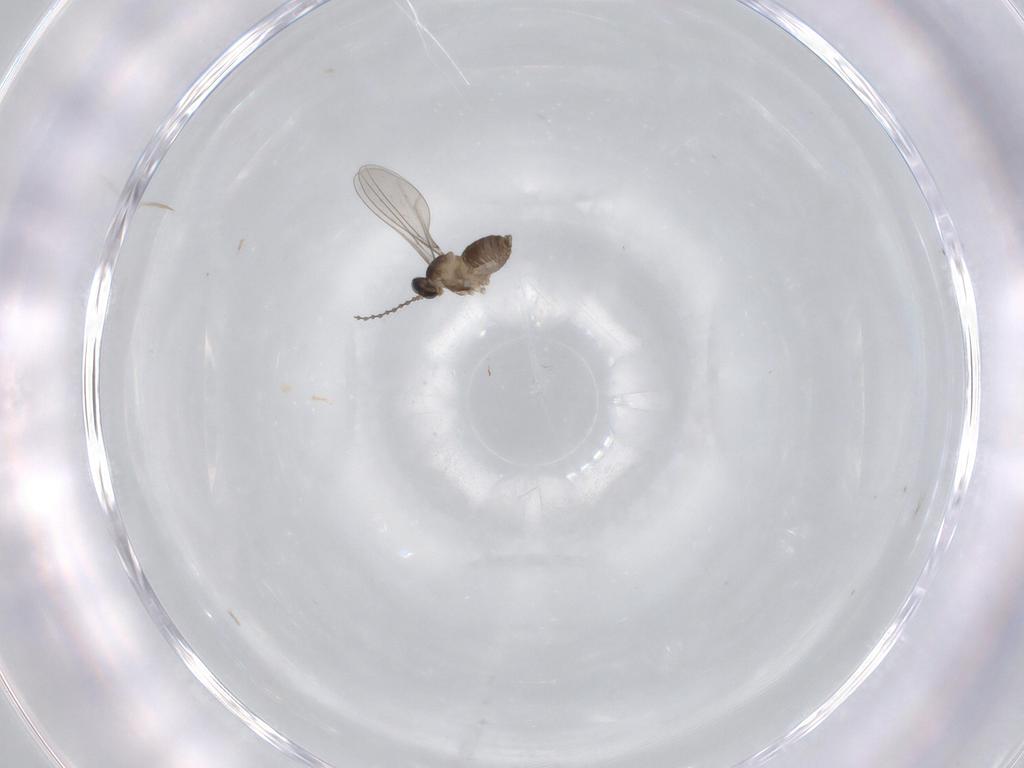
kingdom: Animalia
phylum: Arthropoda
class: Insecta
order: Diptera
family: Cecidomyiidae
